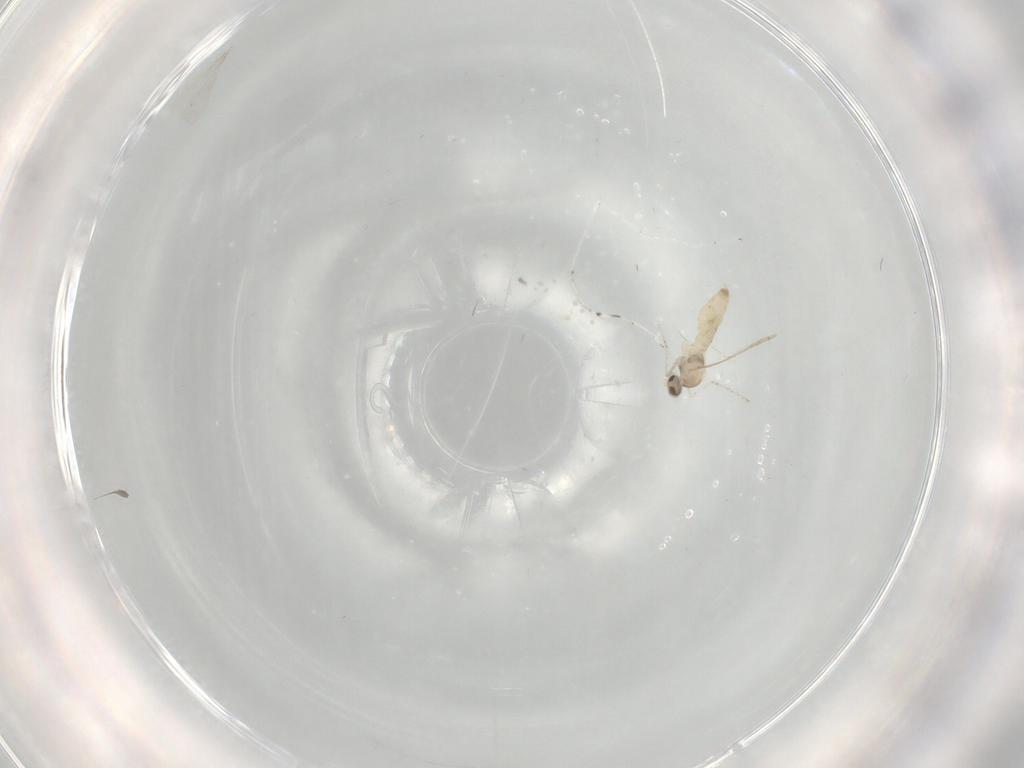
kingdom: Animalia
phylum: Arthropoda
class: Insecta
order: Diptera
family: Cecidomyiidae
